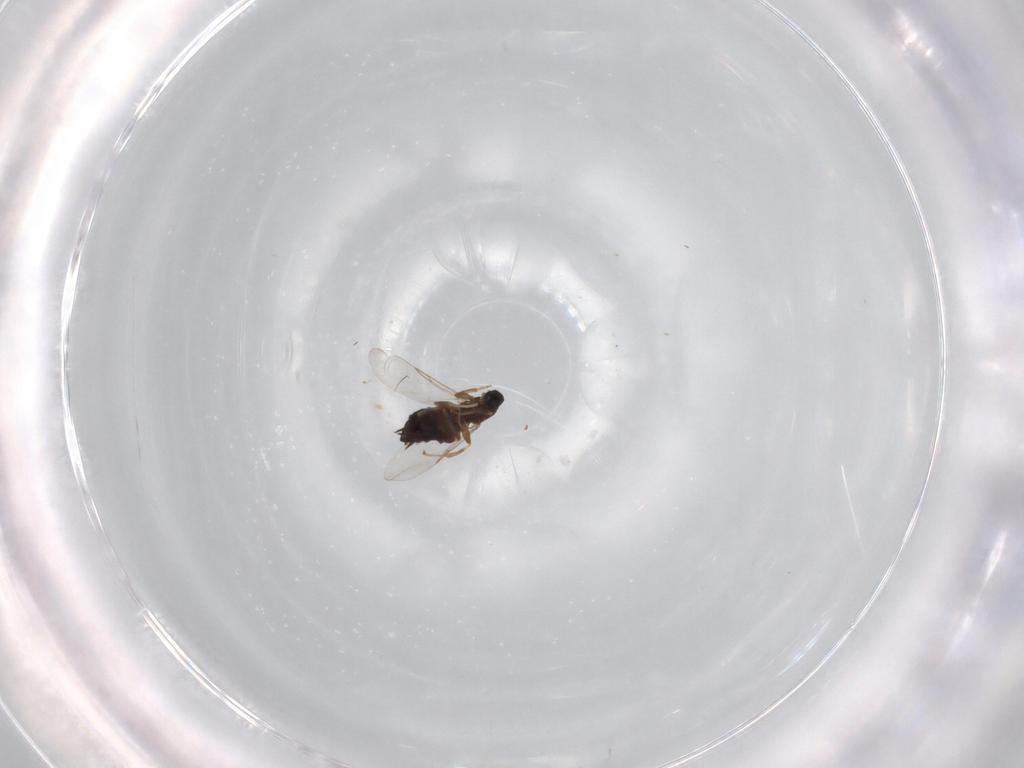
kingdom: Animalia
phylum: Arthropoda
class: Insecta
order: Diptera
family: Scatopsidae
